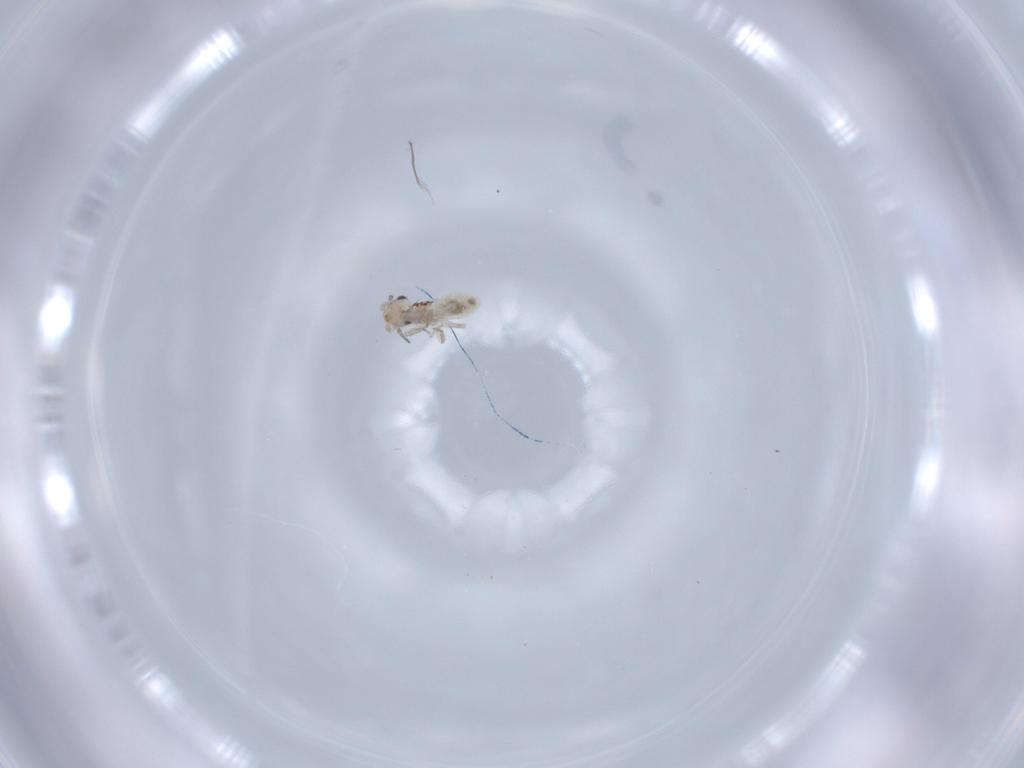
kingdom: Animalia
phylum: Arthropoda
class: Insecta
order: Psocodea
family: Lepidopsocidae
